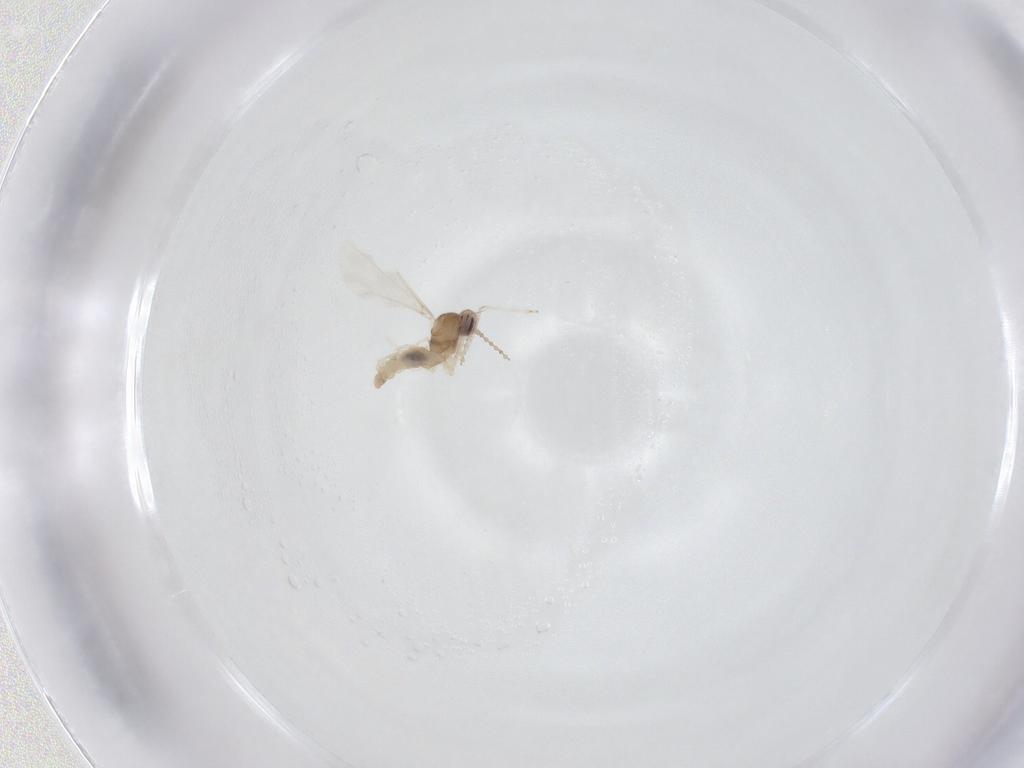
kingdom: Animalia
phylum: Arthropoda
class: Insecta
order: Diptera
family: Cecidomyiidae
